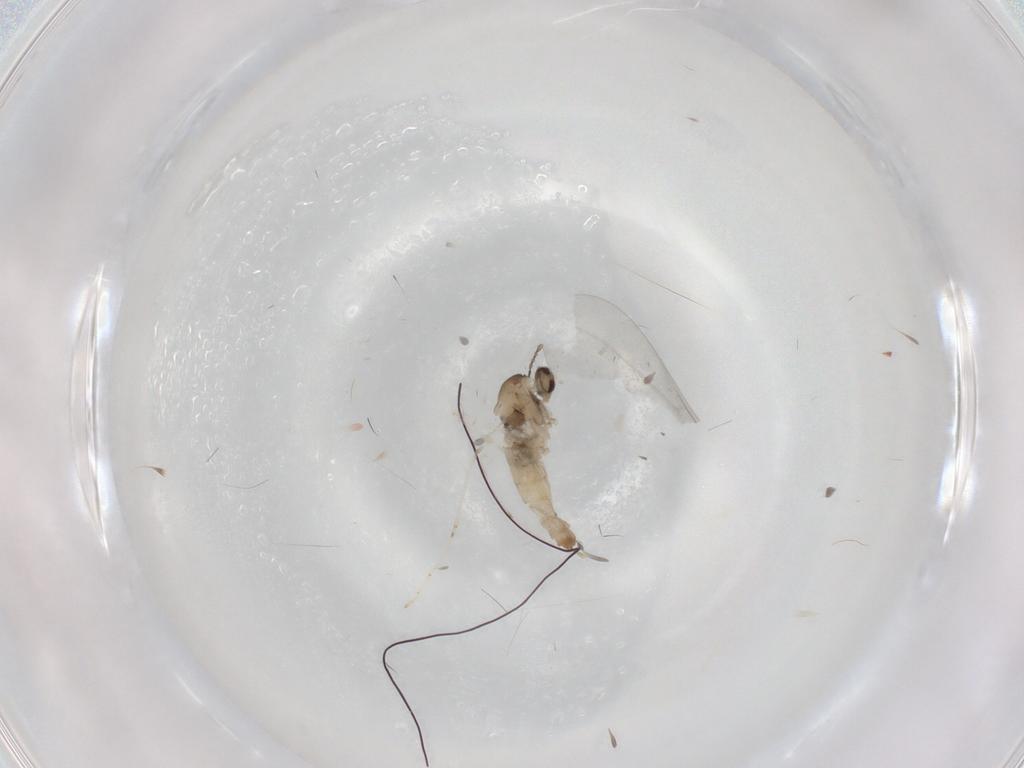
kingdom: Animalia
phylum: Arthropoda
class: Insecta
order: Diptera
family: Cecidomyiidae
